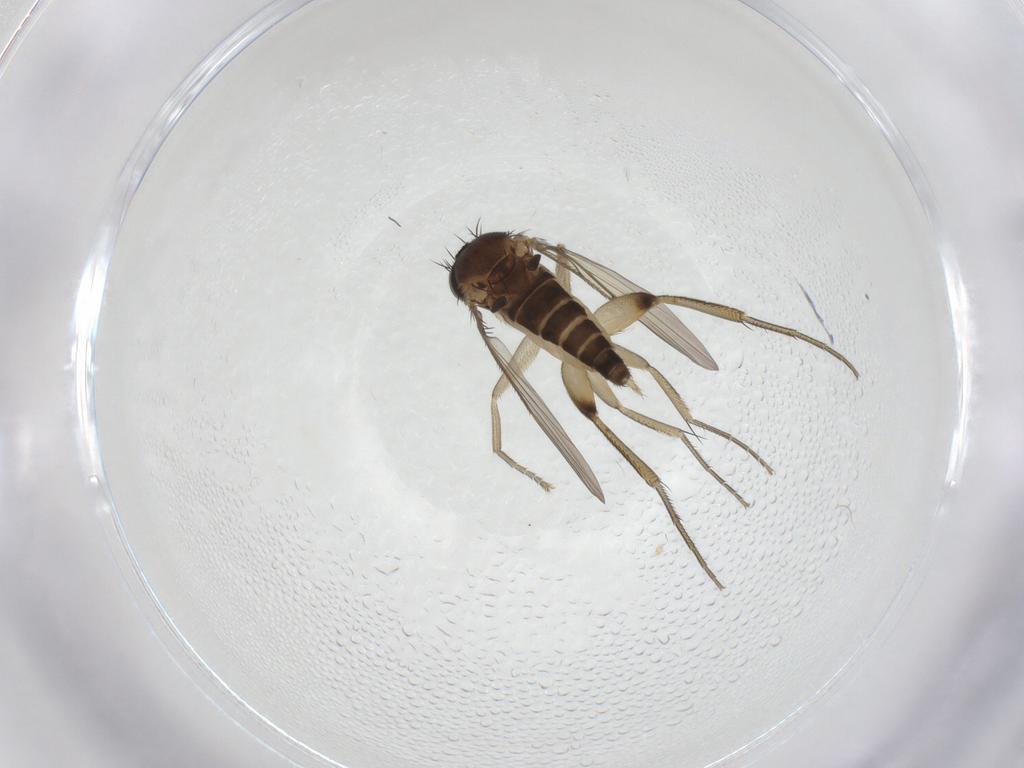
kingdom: Animalia
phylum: Arthropoda
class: Insecta
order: Diptera
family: Phoridae
